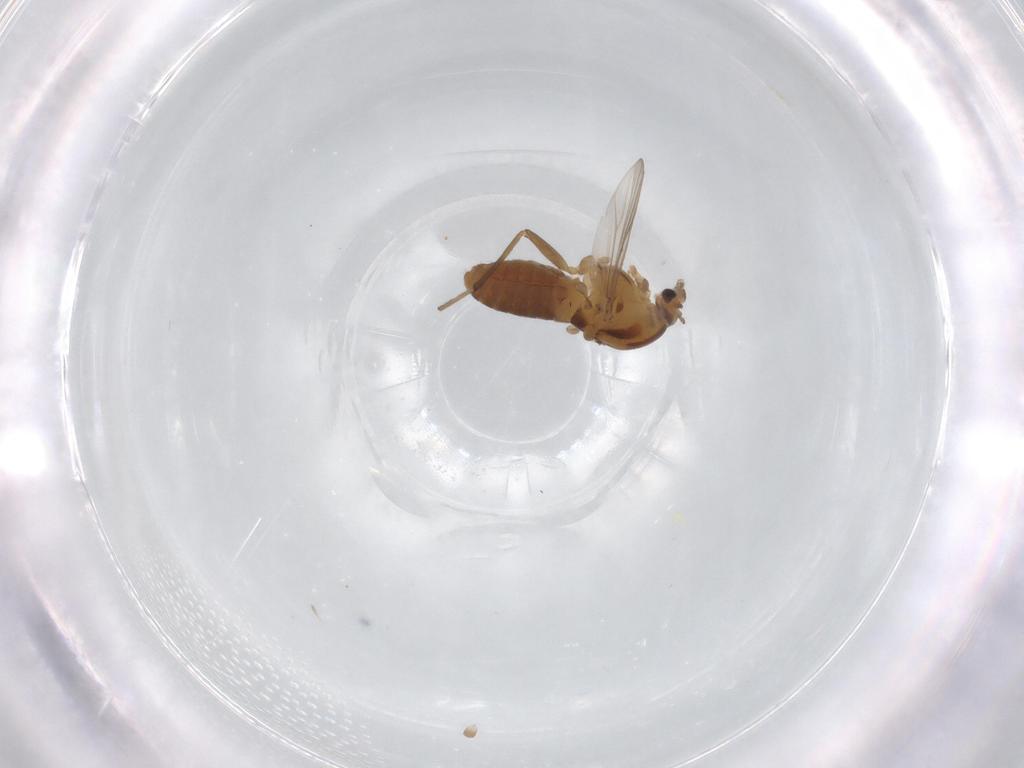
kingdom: Animalia
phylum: Arthropoda
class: Insecta
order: Diptera
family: Chironomidae
